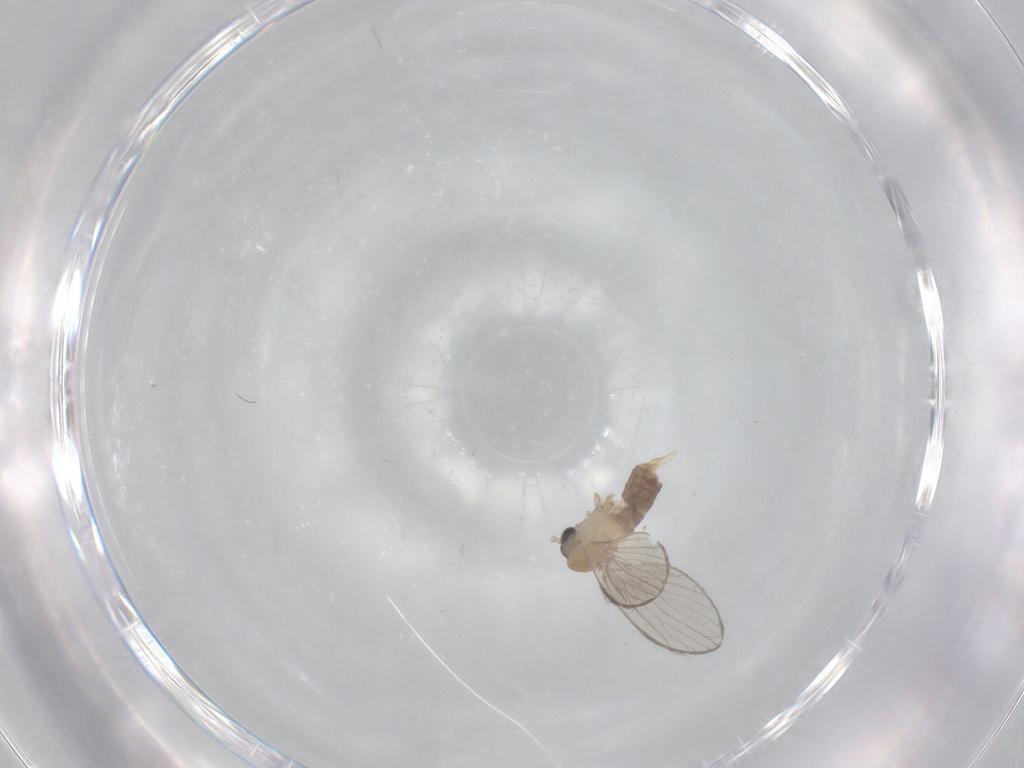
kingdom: Animalia
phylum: Arthropoda
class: Insecta
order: Diptera
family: Psychodidae
